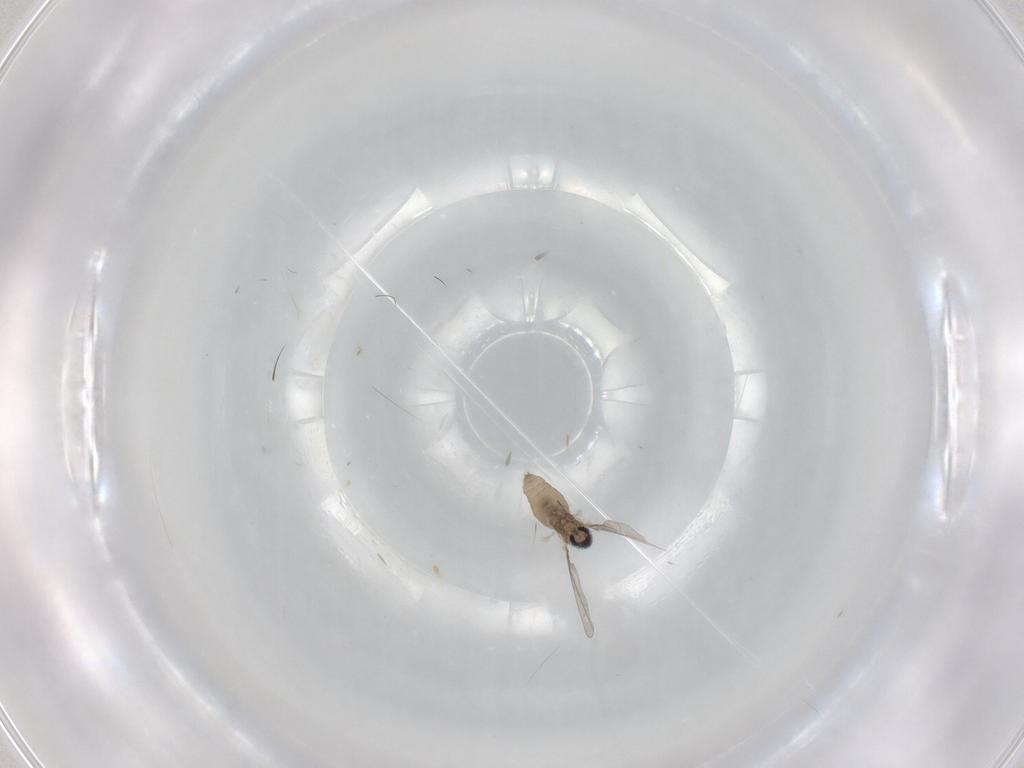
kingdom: Animalia
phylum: Arthropoda
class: Insecta
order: Diptera
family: Cecidomyiidae
